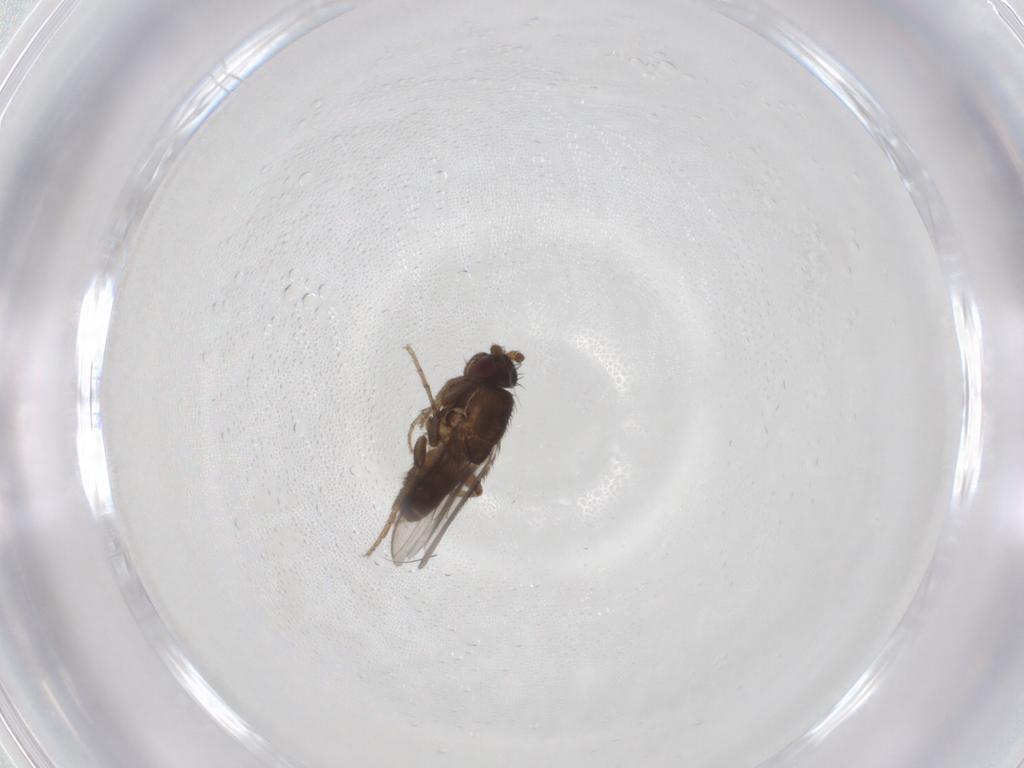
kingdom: Animalia
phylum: Arthropoda
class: Insecta
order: Diptera
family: Sphaeroceridae
